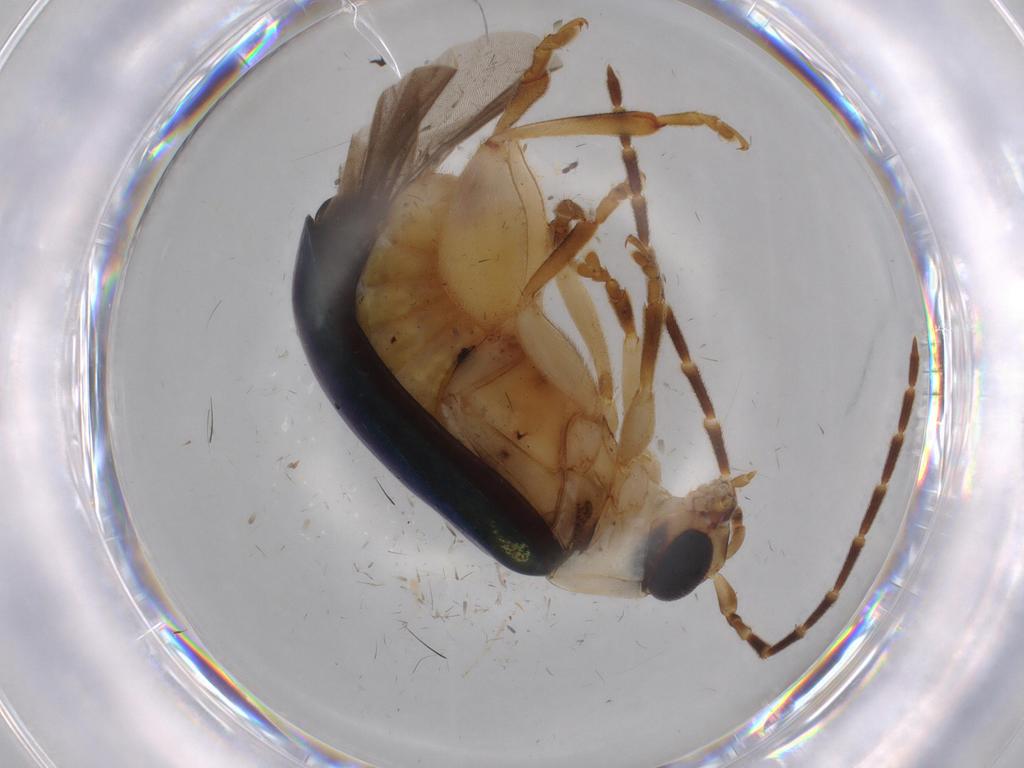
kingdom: Animalia
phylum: Arthropoda
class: Insecta
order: Coleoptera
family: Chrysomelidae
